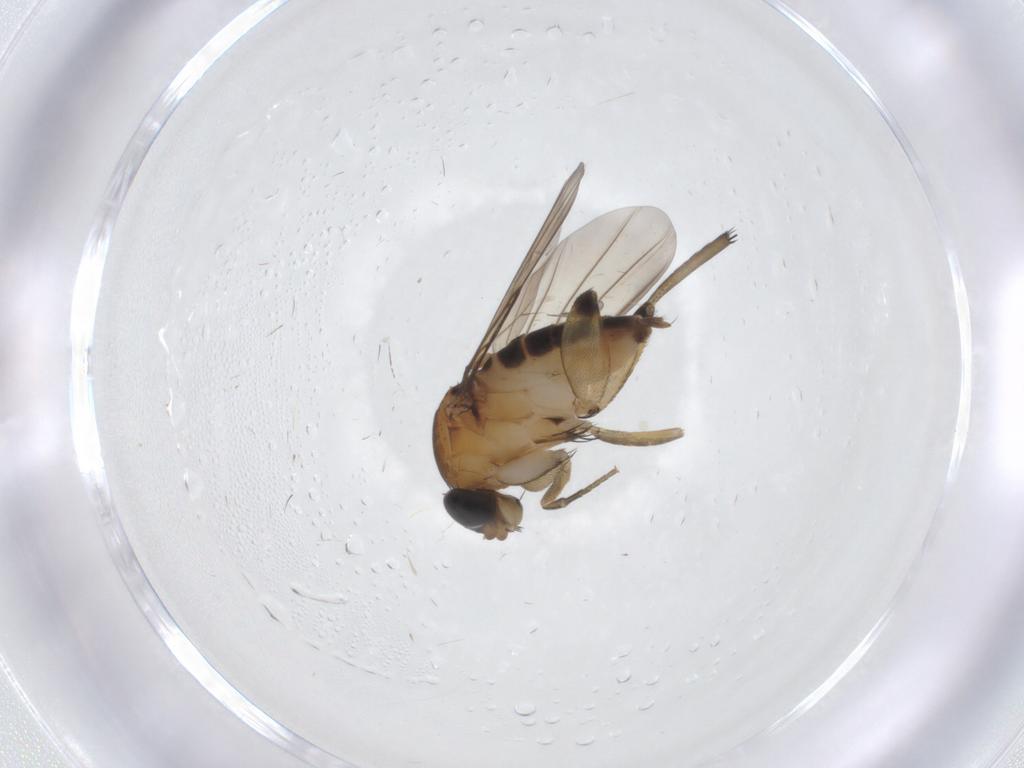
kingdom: Animalia
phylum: Arthropoda
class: Insecta
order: Diptera
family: Phoridae
